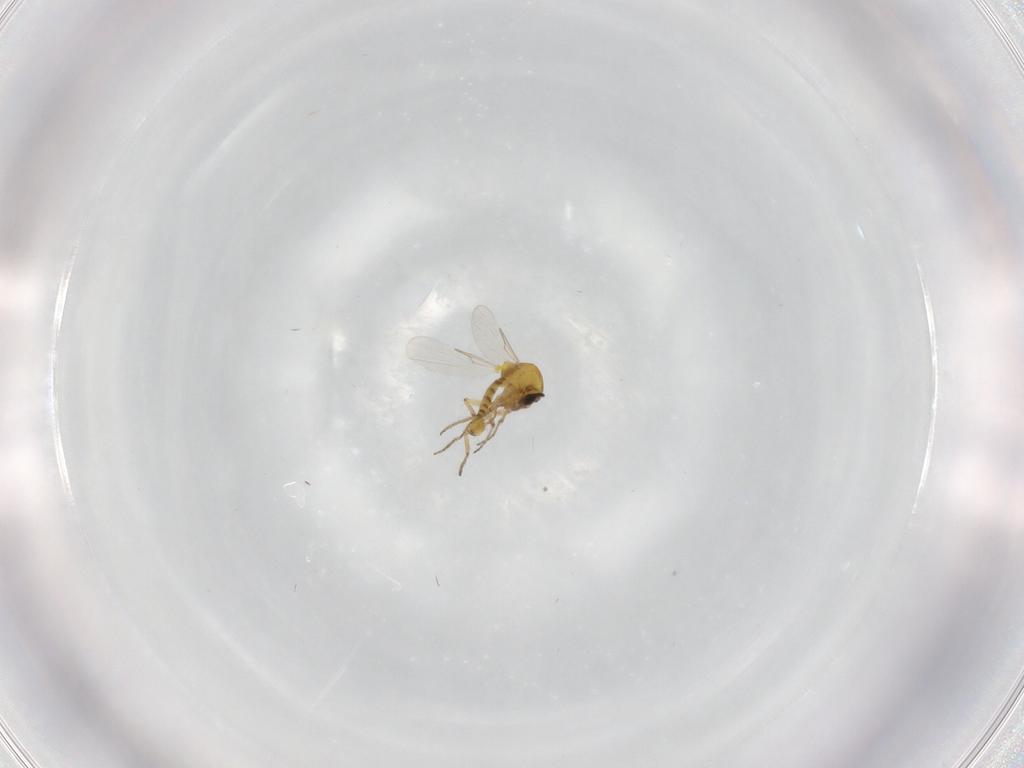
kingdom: Animalia
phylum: Arthropoda
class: Insecta
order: Diptera
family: Ceratopogonidae
